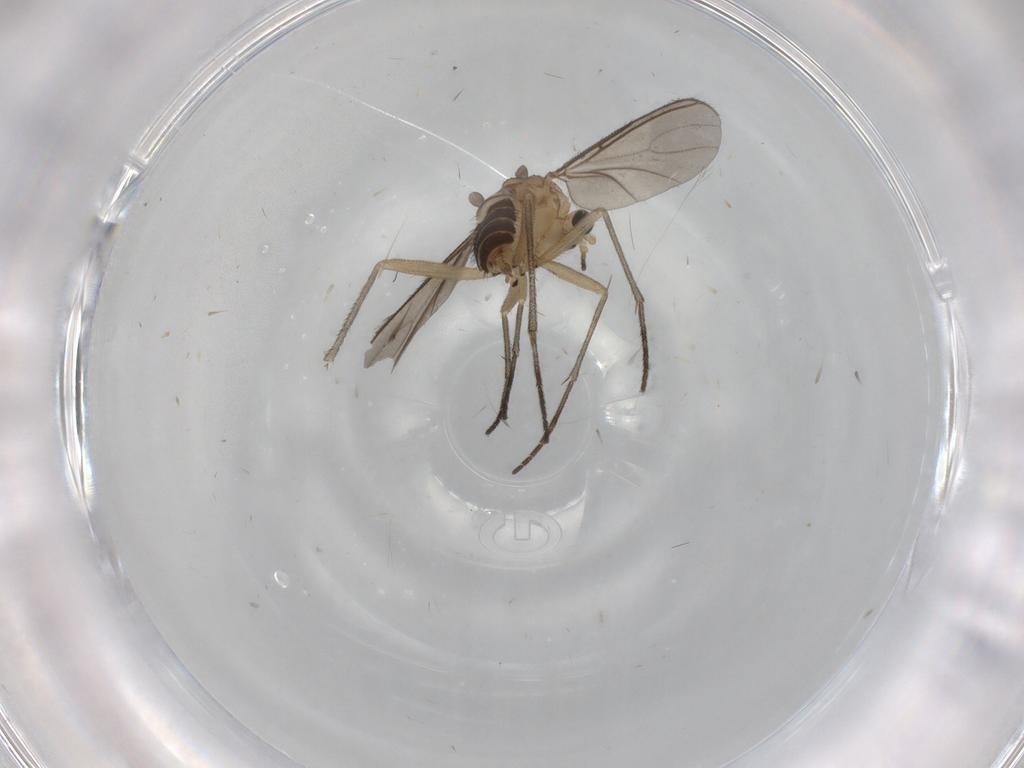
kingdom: Animalia
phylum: Arthropoda
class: Insecta
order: Diptera
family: Sciaridae
